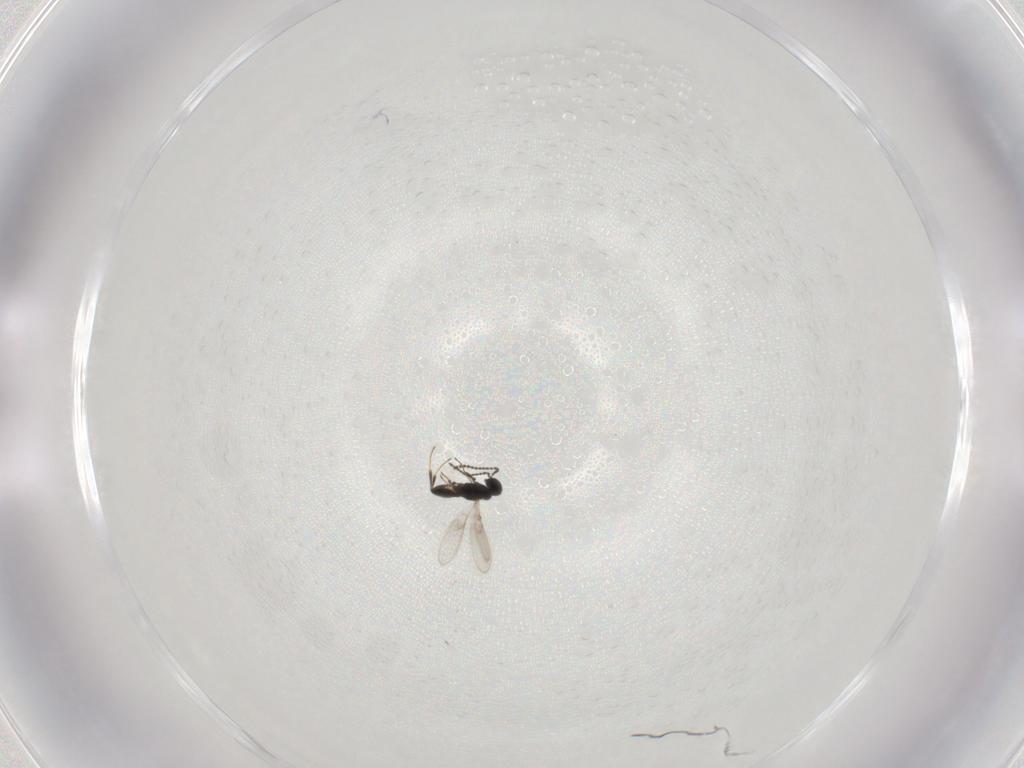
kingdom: Animalia
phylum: Arthropoda
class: Insecta
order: Hymenoptera
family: Scelionidae
